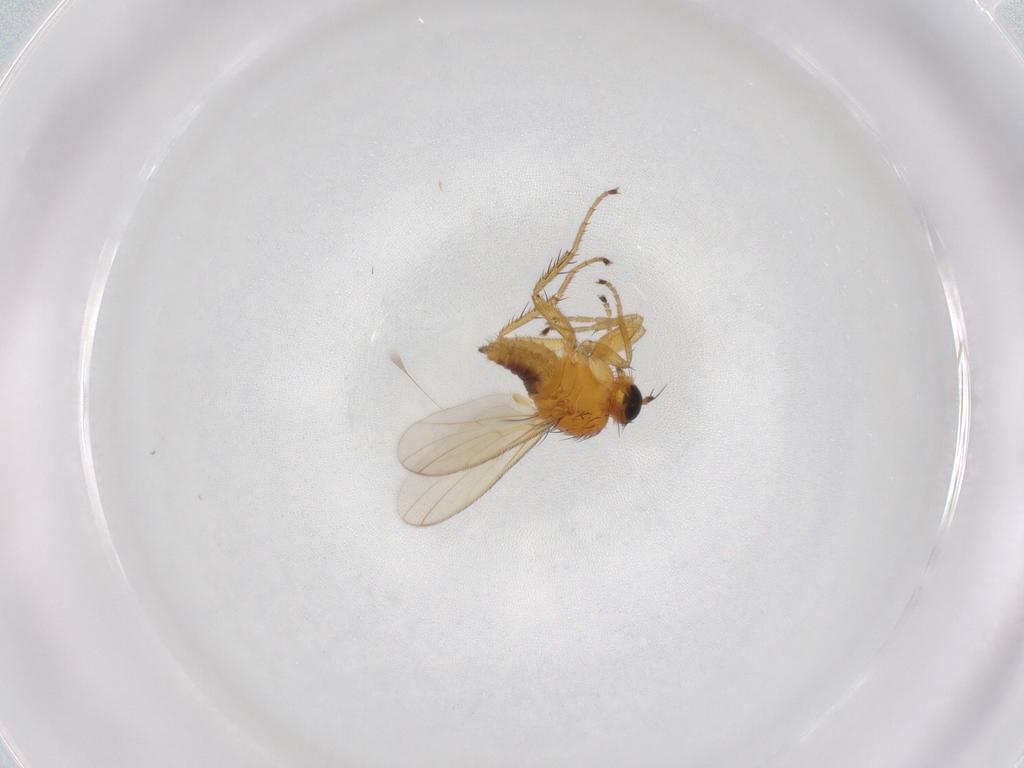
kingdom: Animalia
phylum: Arthropoda
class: Insecta
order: Diptera
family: Hybotidae
